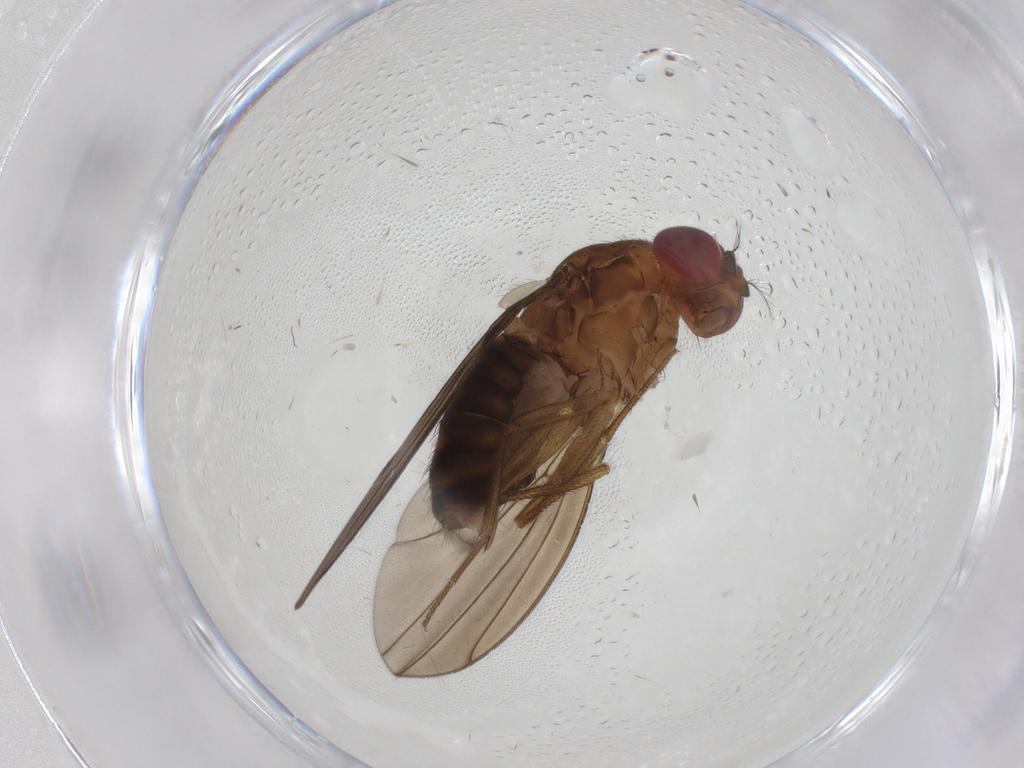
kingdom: Animalia
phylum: Arthropoda
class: Insecta
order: Diptera
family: Drosophilidae
